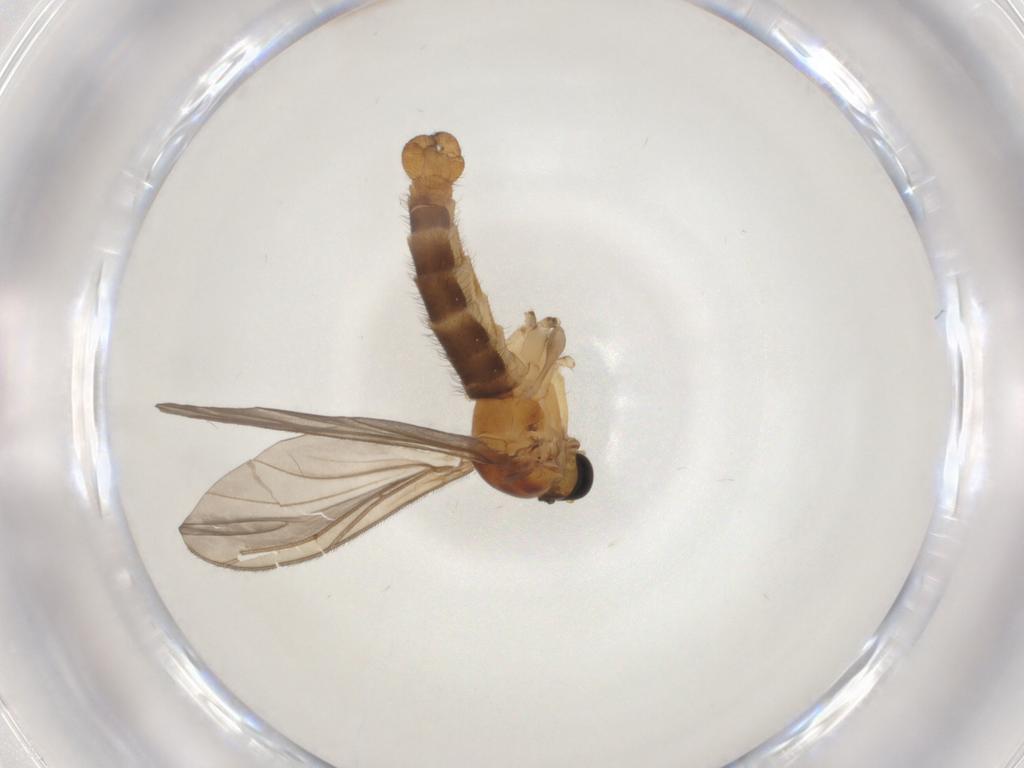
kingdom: Animalia
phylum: Arthropoda
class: Insecta
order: Diptera
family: Sciaridae
